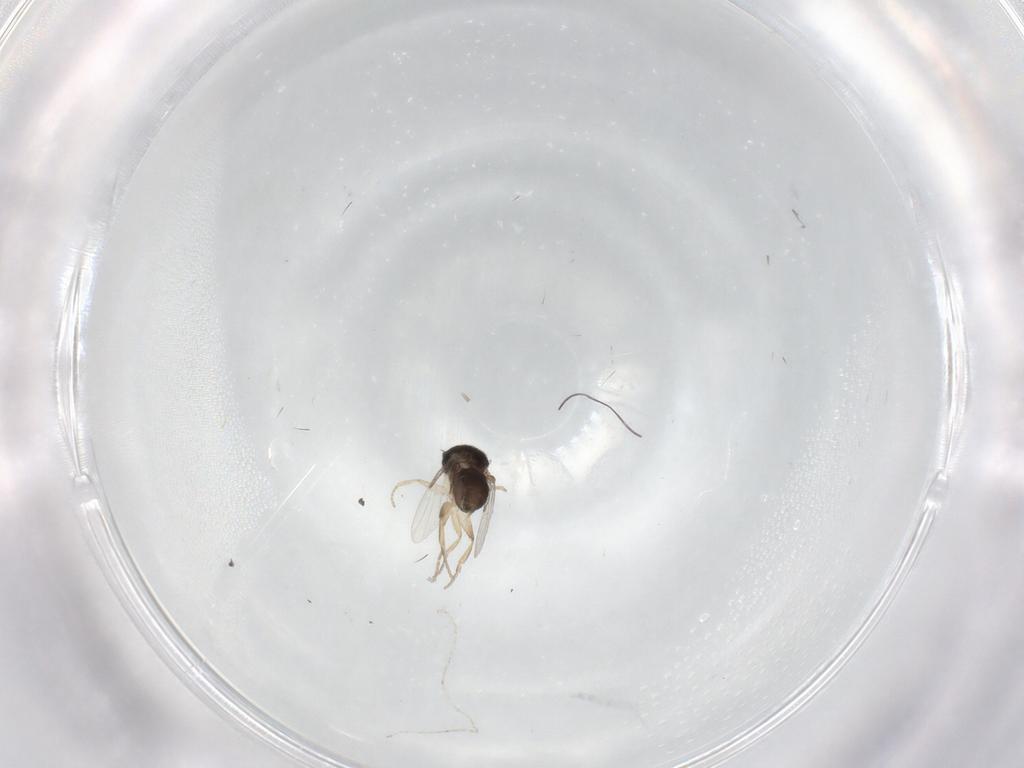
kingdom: Animalia
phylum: Arthropoda
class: Insecta
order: Diptera
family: Phoridae
